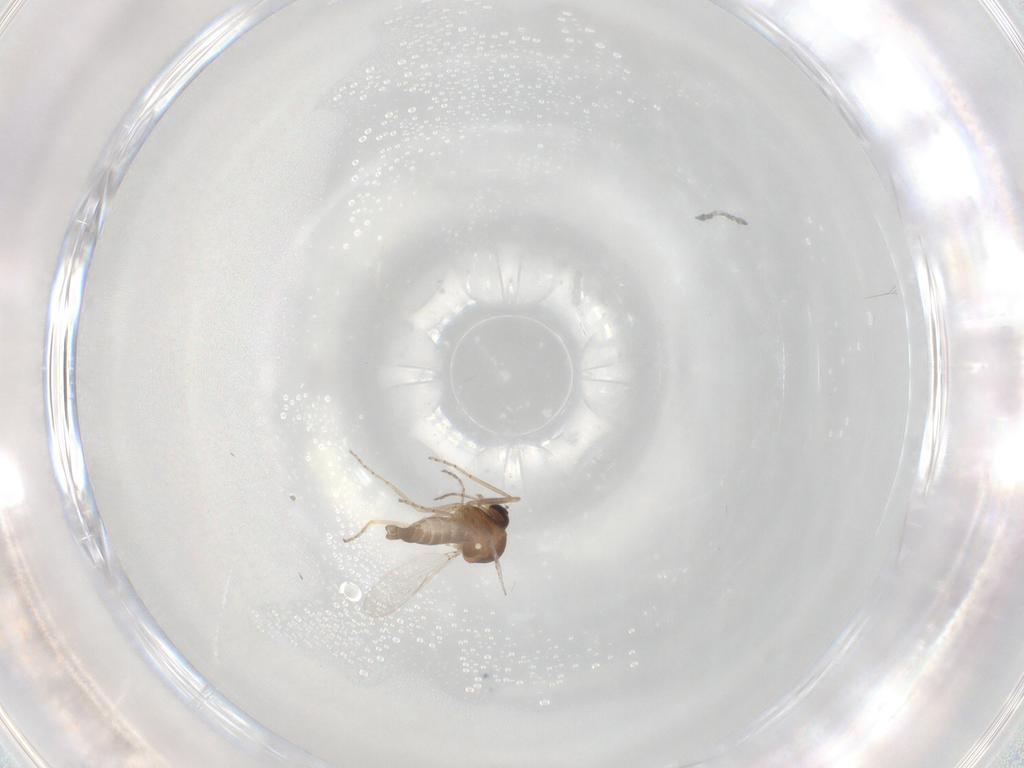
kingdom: Animalia
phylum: Arthropoda
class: Insecta
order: Diptera
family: Ceratopogonidae
